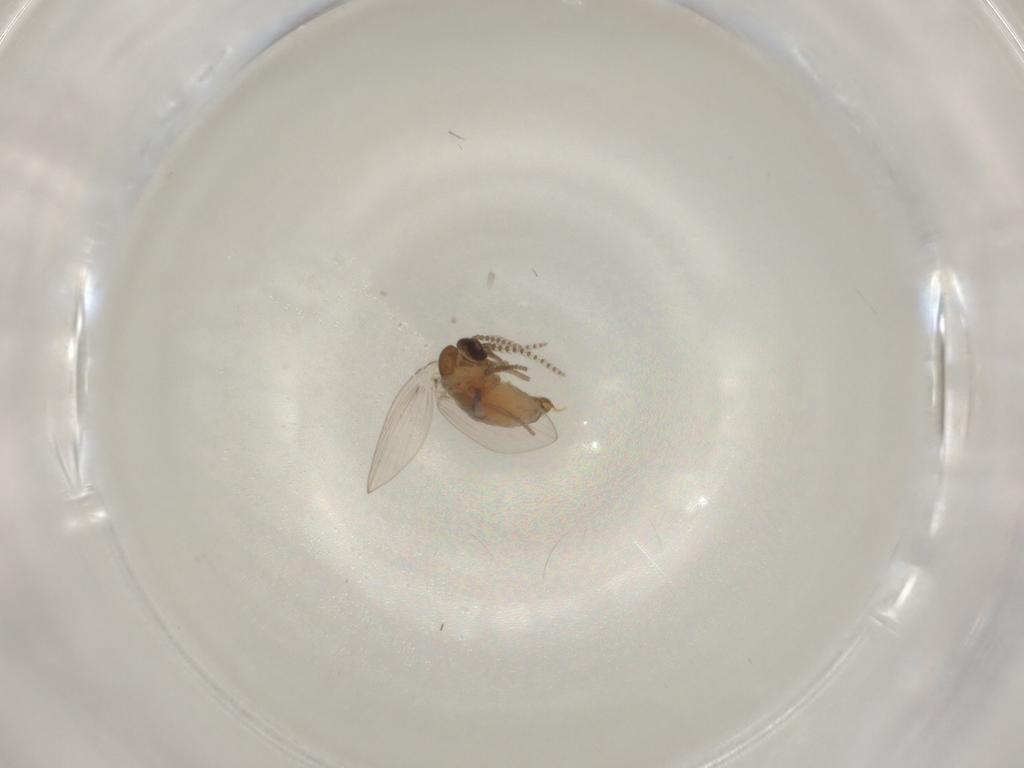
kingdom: Animalia
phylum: Arthropoda
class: Insecta
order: Diptera
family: Psychodidae
